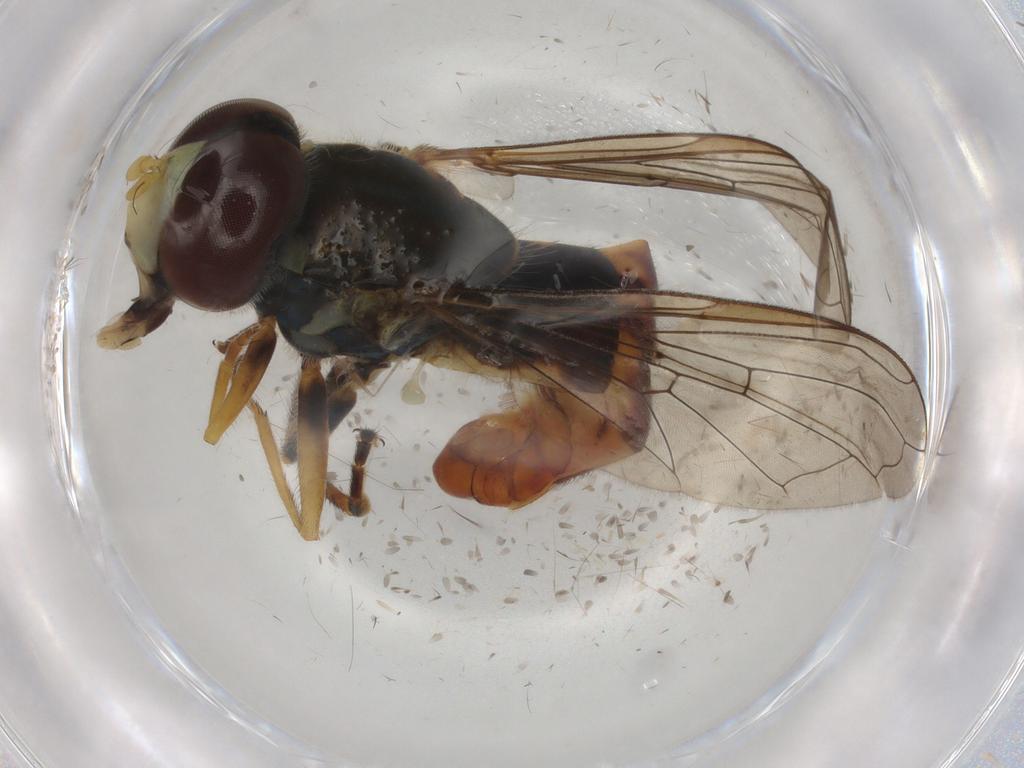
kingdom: Animalia
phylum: Arthropoda
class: Insecta
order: Diptera
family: Syrphidae
